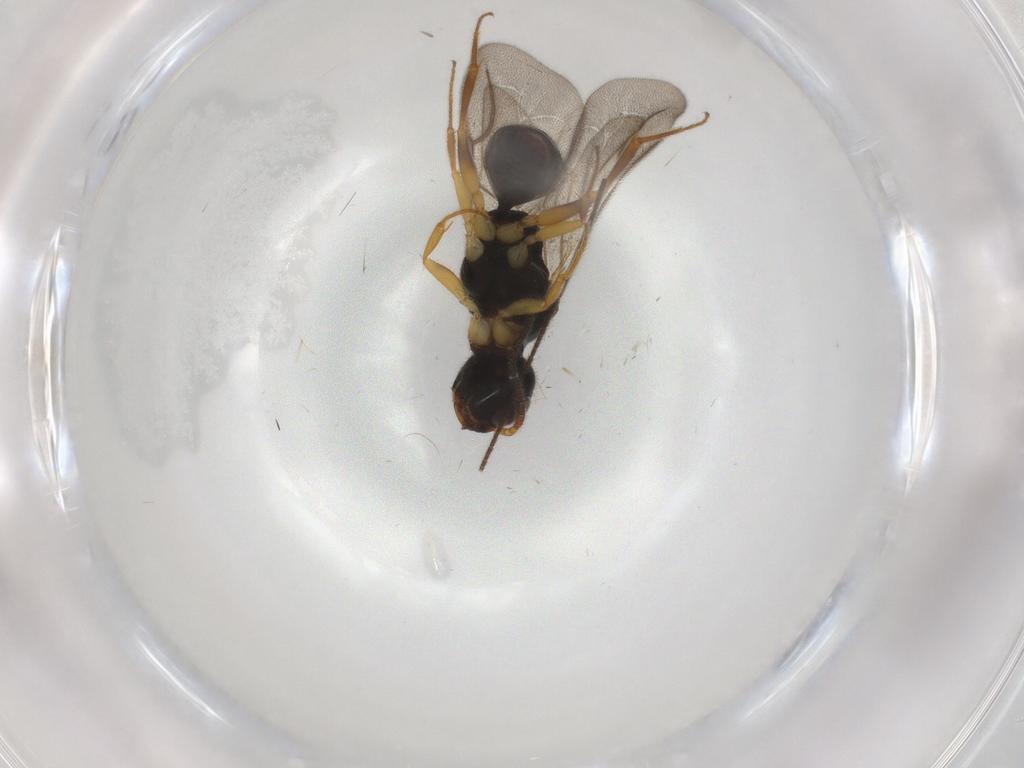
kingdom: Animalia
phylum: Arthropoda
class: Insecta
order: Hymenoptera
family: Bethylidae
